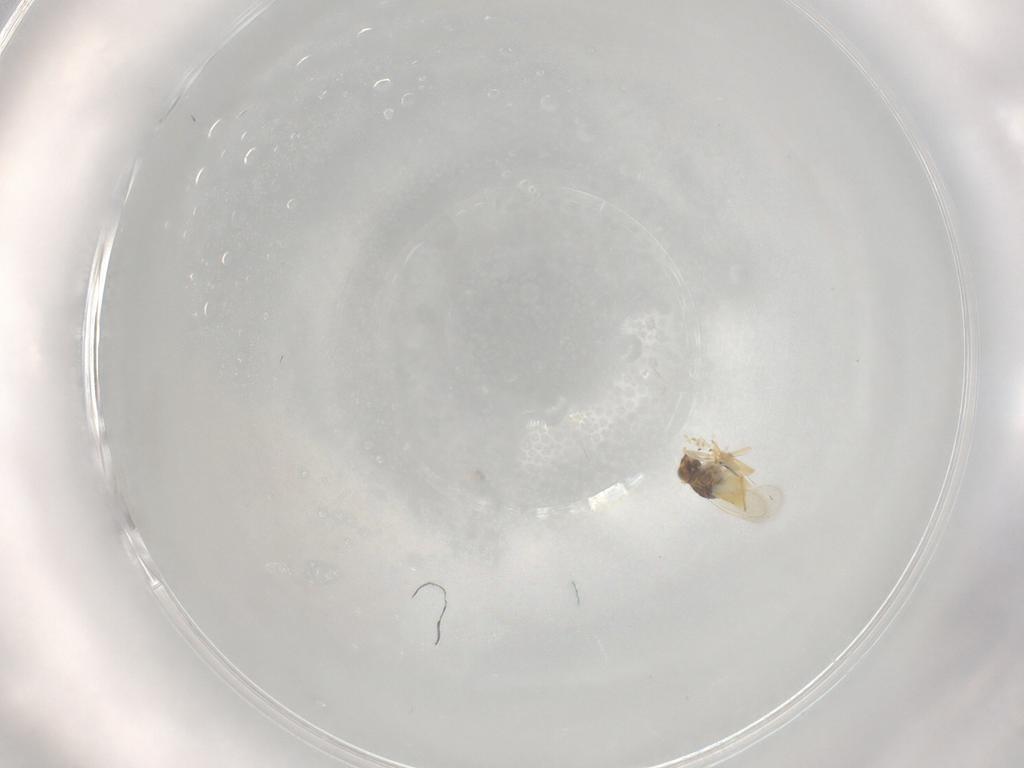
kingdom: Animalia
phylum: Arthropoda
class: Insecta
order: Hymenoptera
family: Aphelinidae
